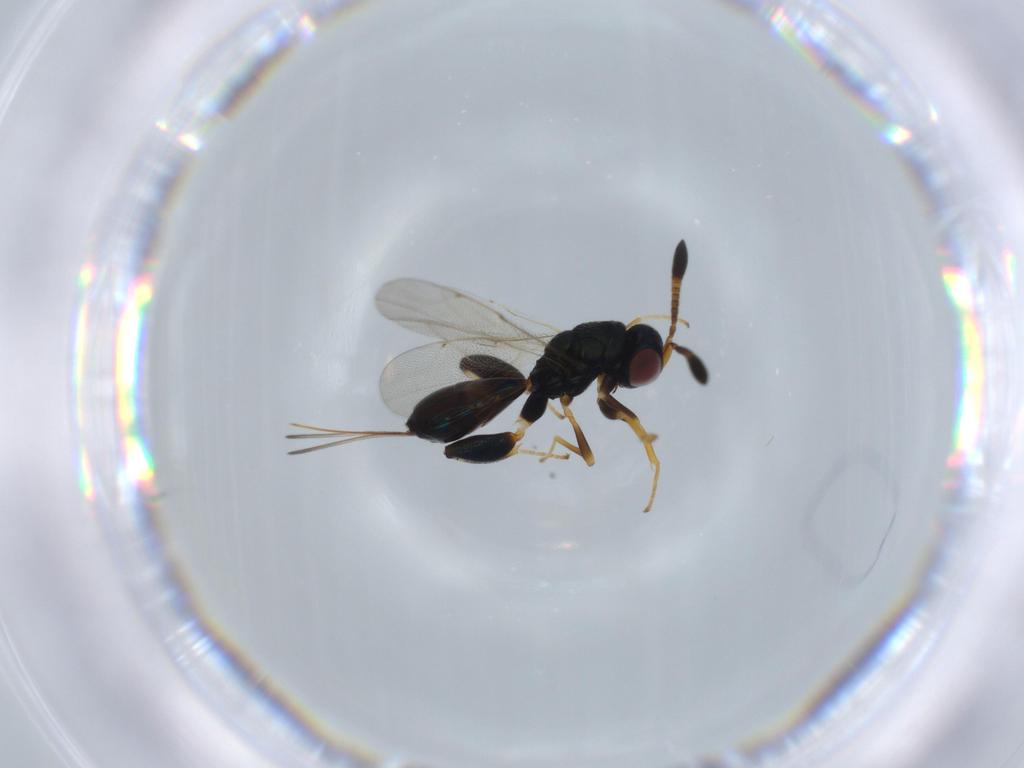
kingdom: Animalia
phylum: Arthropoda
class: Insecta
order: Hymenoptera
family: Torymidae
